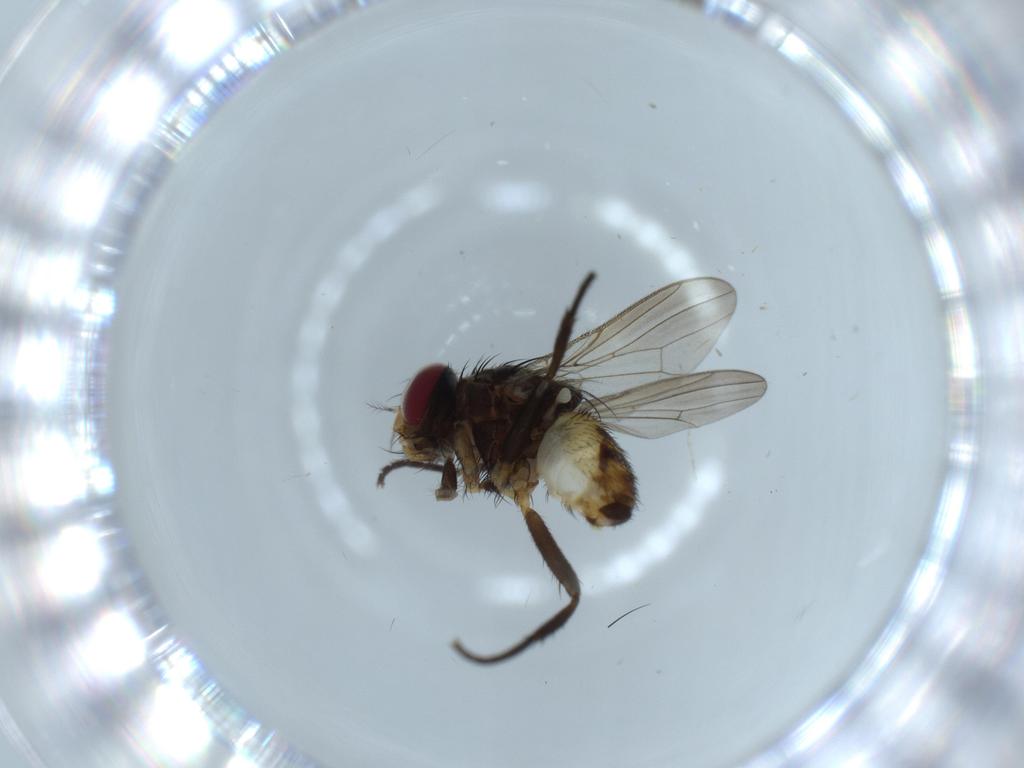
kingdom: Animalia
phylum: Arthropoda
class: Insecta
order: Diptera
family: Anthomyiidae
